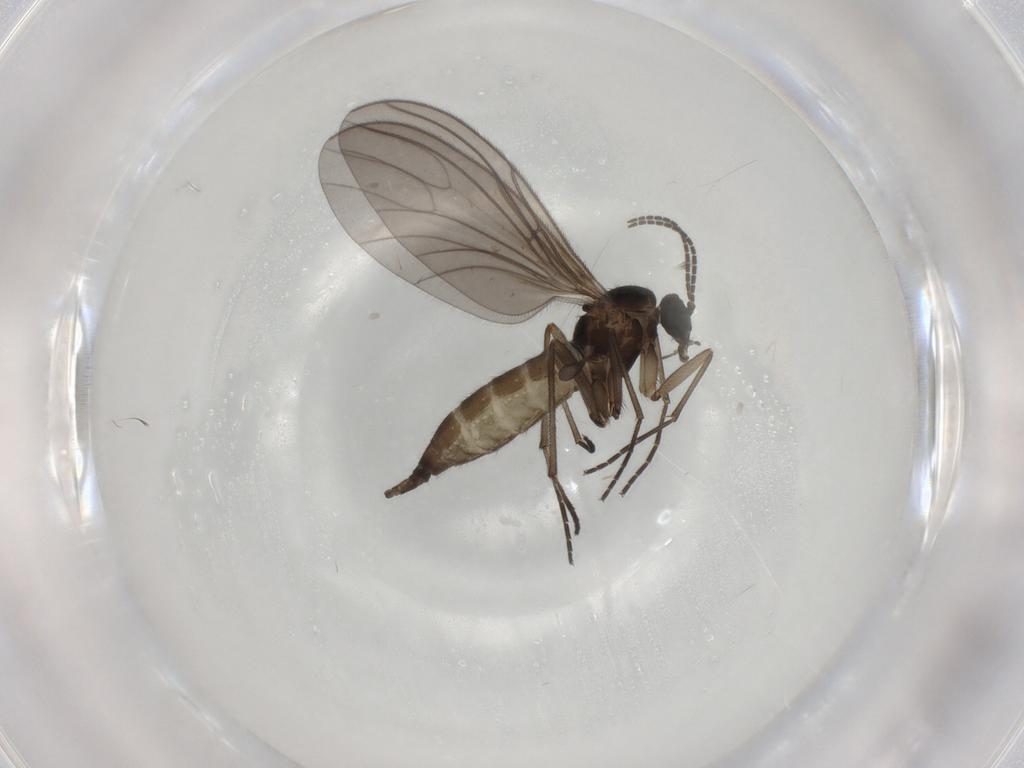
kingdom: Animalia
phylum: Arthropoda
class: Insecta
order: Diptera
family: Sciaridae
